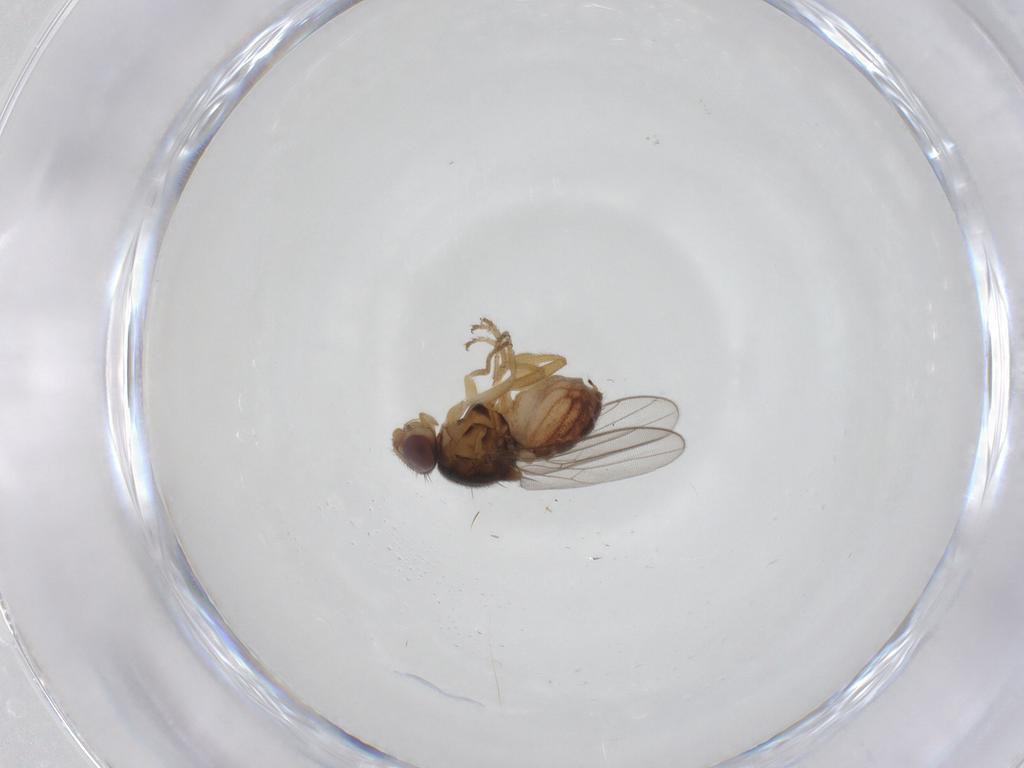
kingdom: Animalia
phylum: Arthropoda
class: Insecta
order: Diptera
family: Chloropidae
